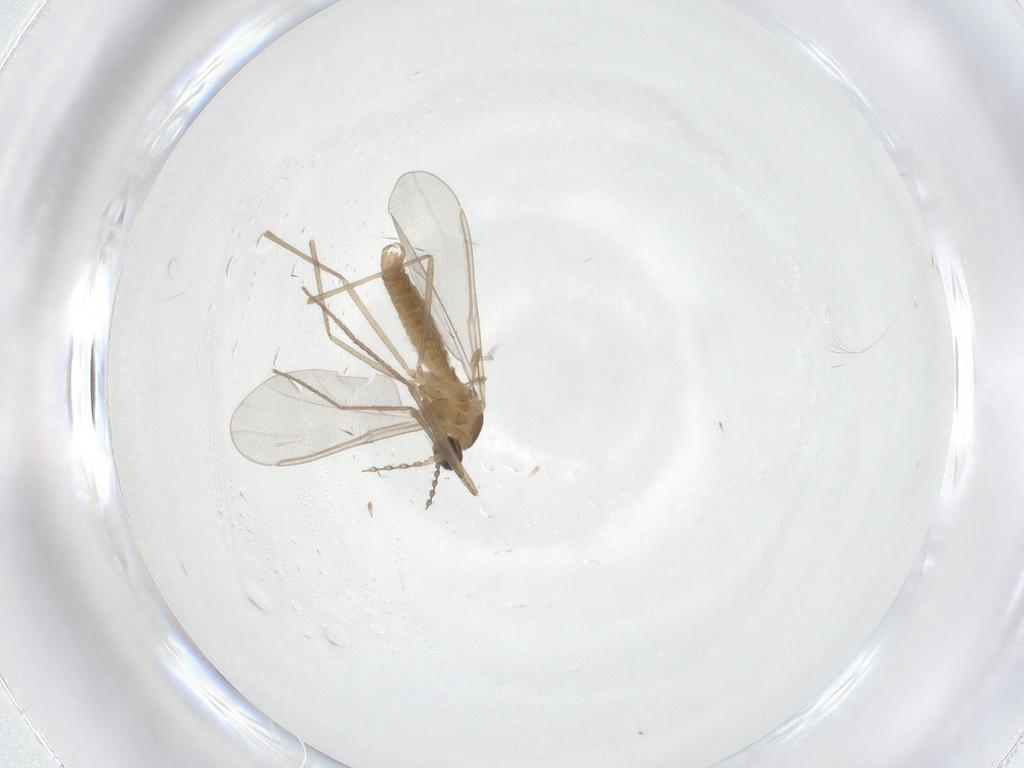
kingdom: Animalia
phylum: Arthropoda
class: Insecta
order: Diptera
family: Cecidomyiidae
